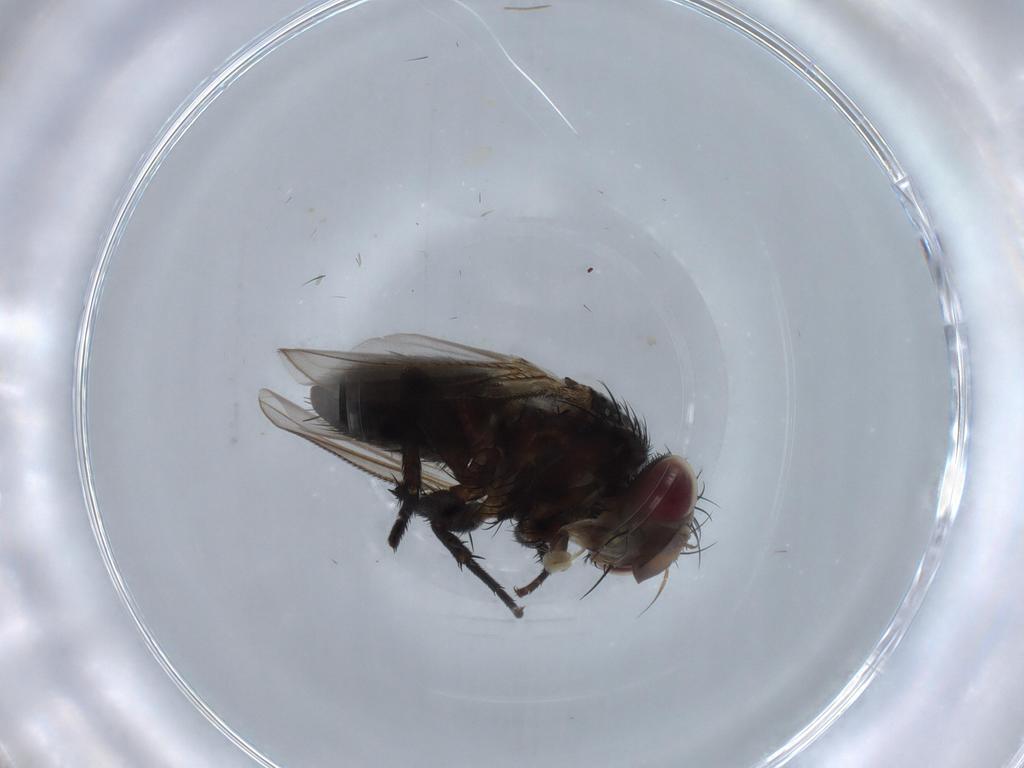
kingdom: Animalia
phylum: Arthropoda
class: Insecta
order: Diptera
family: Tachinidae
